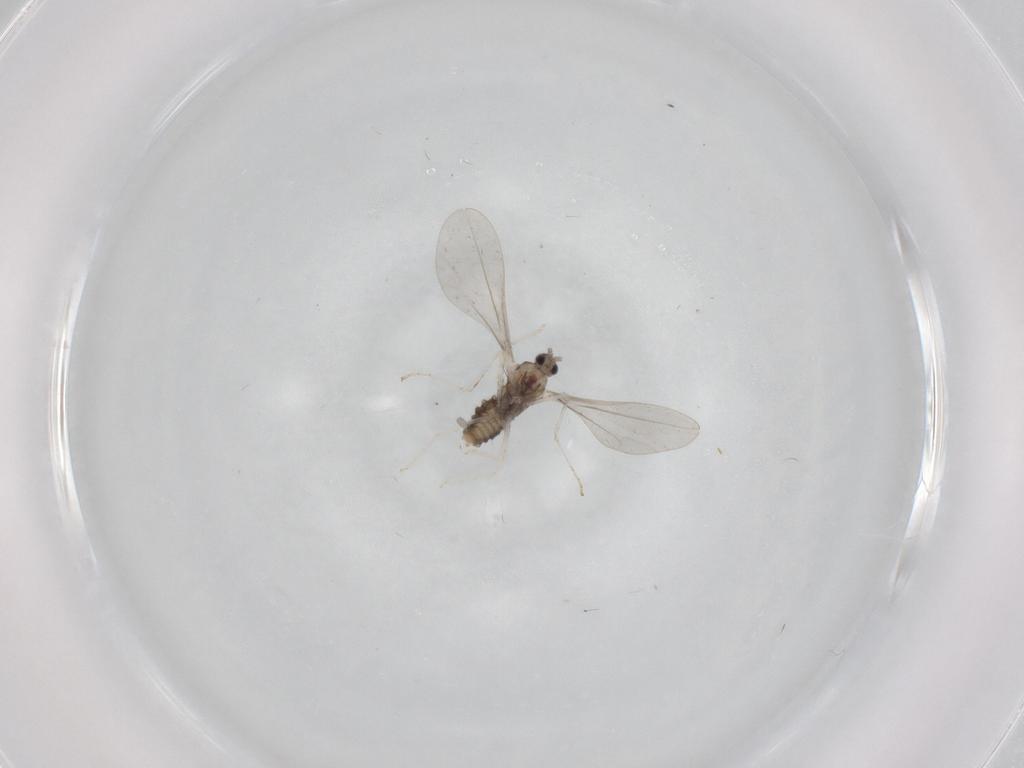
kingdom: Animalia
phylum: Arthropoda
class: Insecta
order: Diptera
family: Cecidomyiidae
